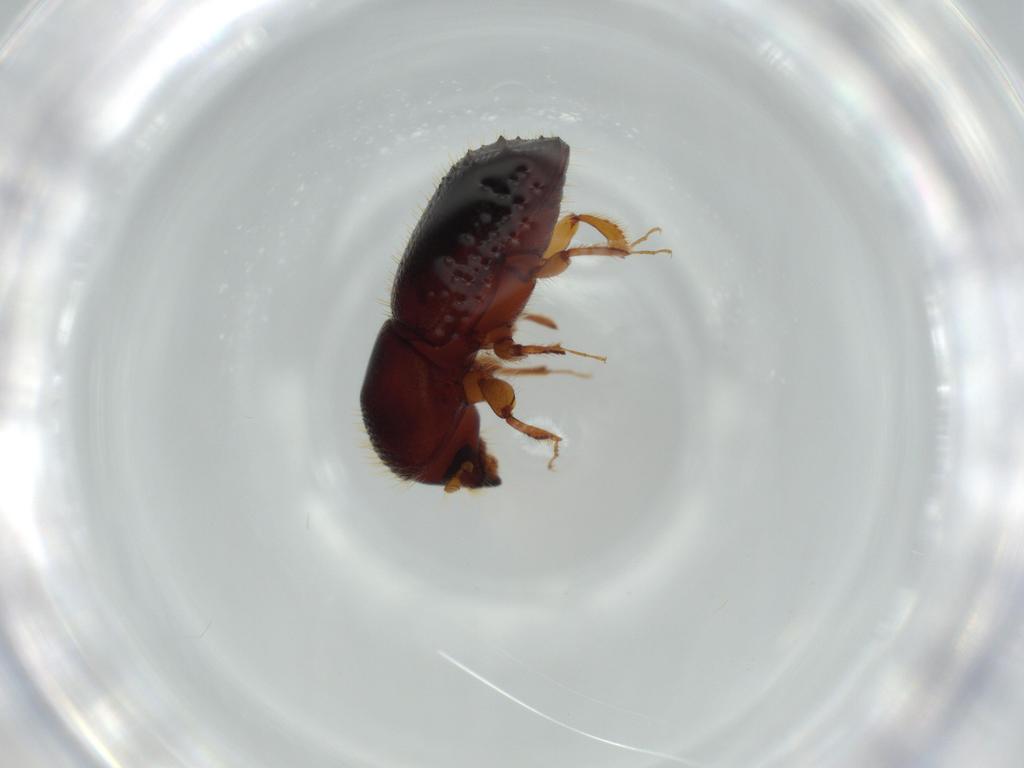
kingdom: Animalia
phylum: Arthropoda
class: Insecta
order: Coleoptera
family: Curculionidae
